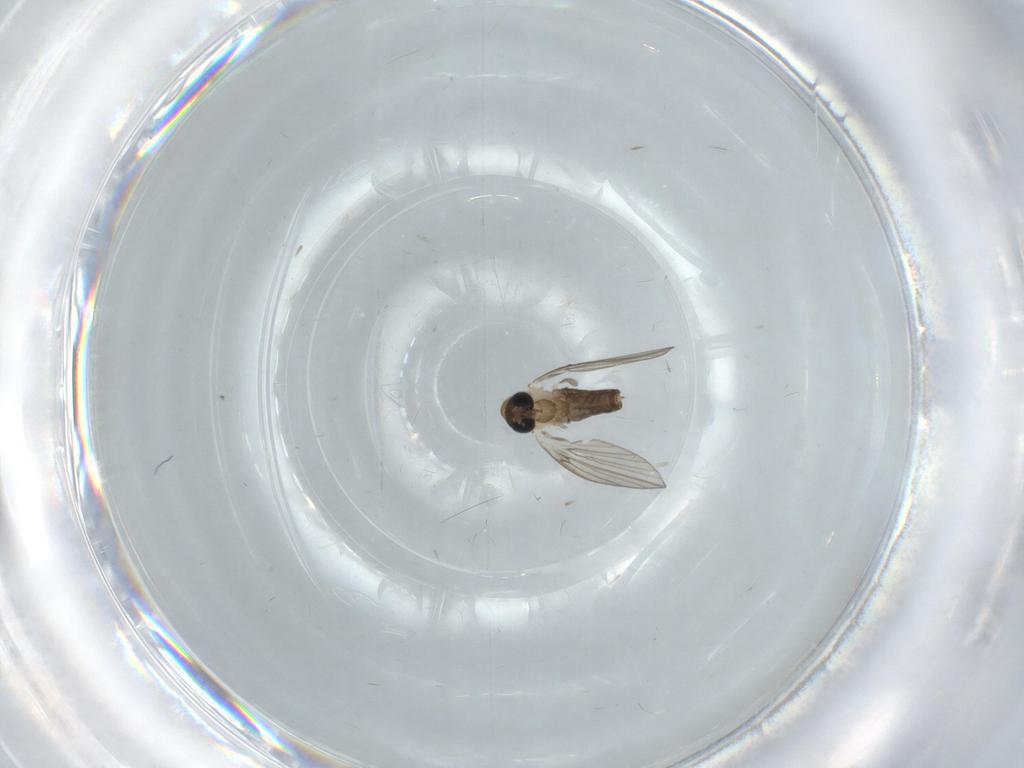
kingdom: Animalia
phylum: Arthropoda
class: Insecta
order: Diptera
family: Psychodidae
